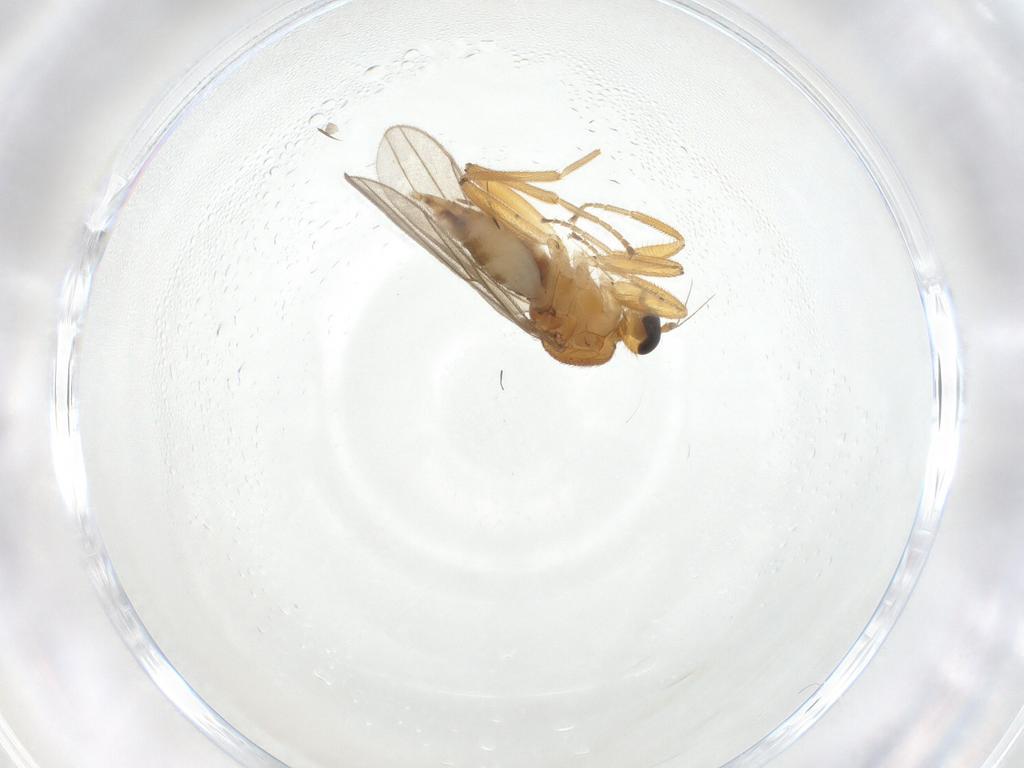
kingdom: Animalia
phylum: Arthropoda
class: Insecta
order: Diptera
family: Hybotidae
